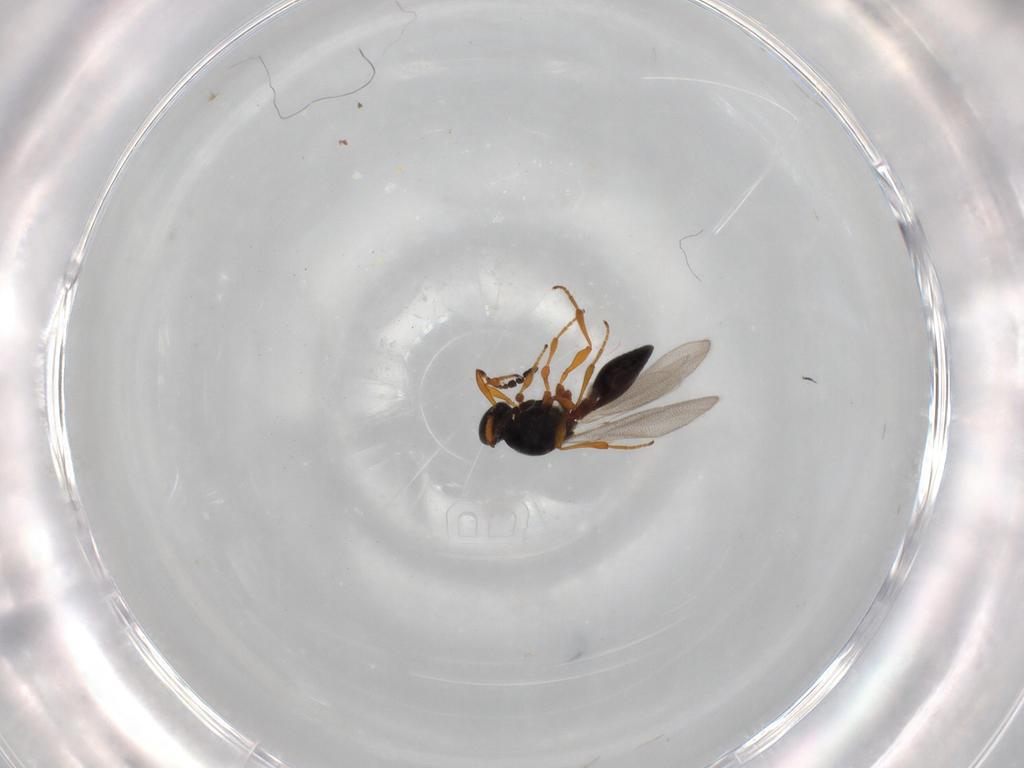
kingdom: Animalia
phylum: Arthropoda
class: Insecta
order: Hymenoptera
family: Platygastridae
